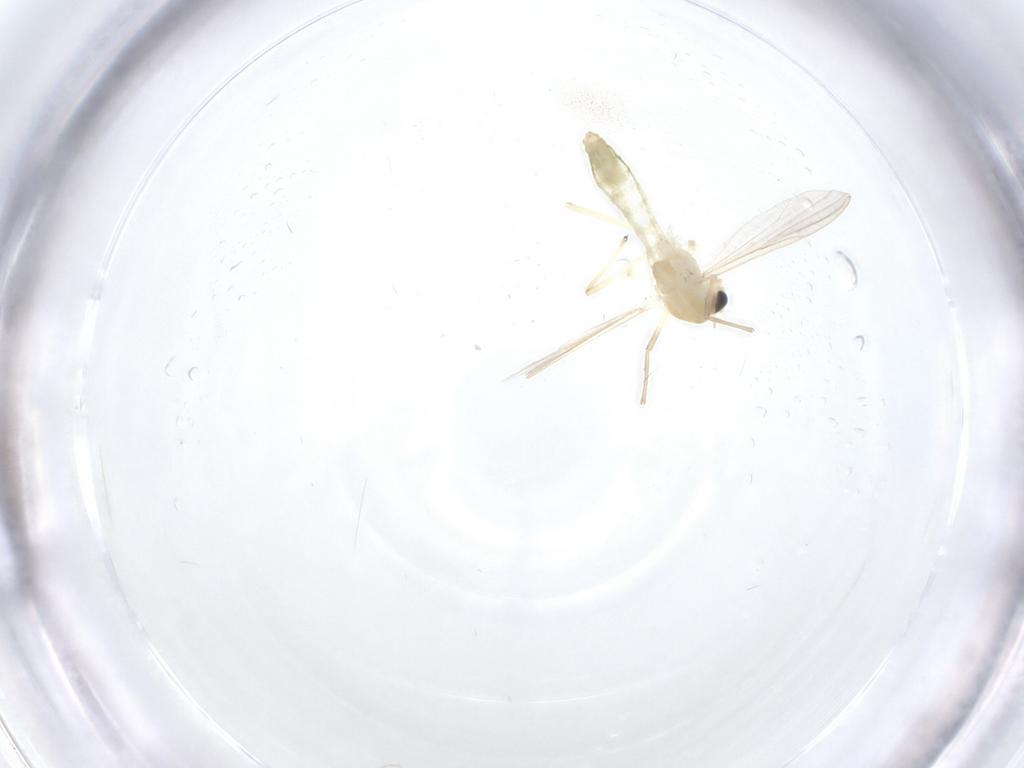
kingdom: Animalia
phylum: Arthropoda
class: Insecta
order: Diptera
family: Chironomidae
